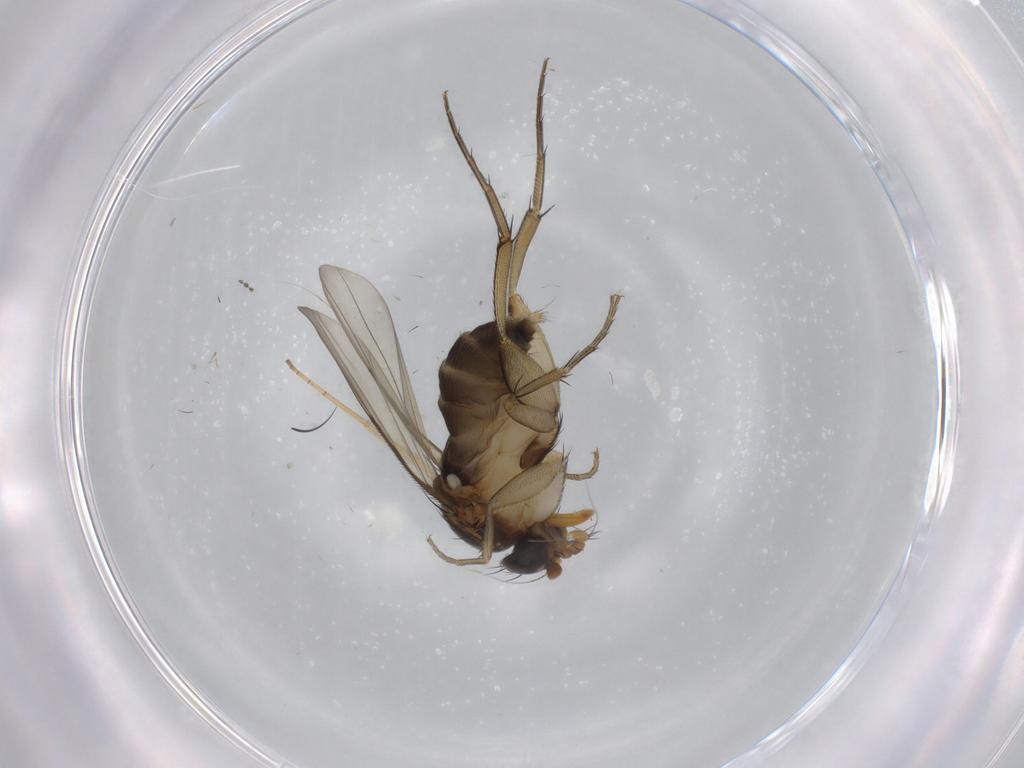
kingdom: Animalia
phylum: Arthropoda
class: Insecta
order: Diptera
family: Phoridae
